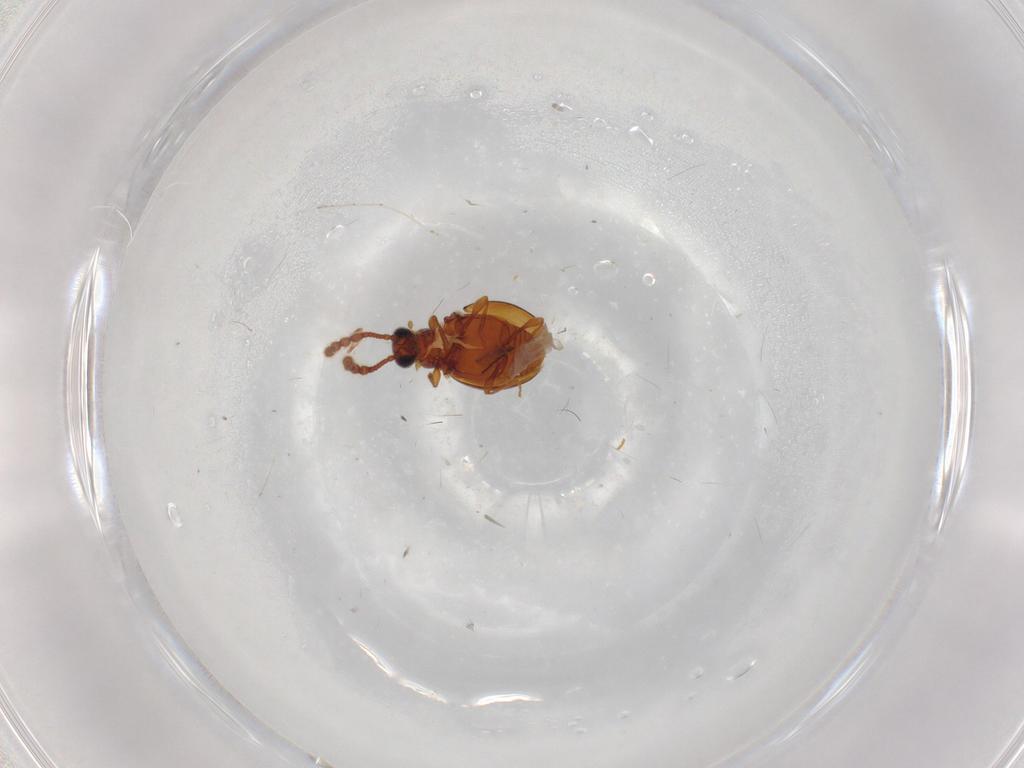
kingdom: Animalia
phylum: Arthropoda
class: Insecta
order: Coleoptera
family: Staphylinidae
